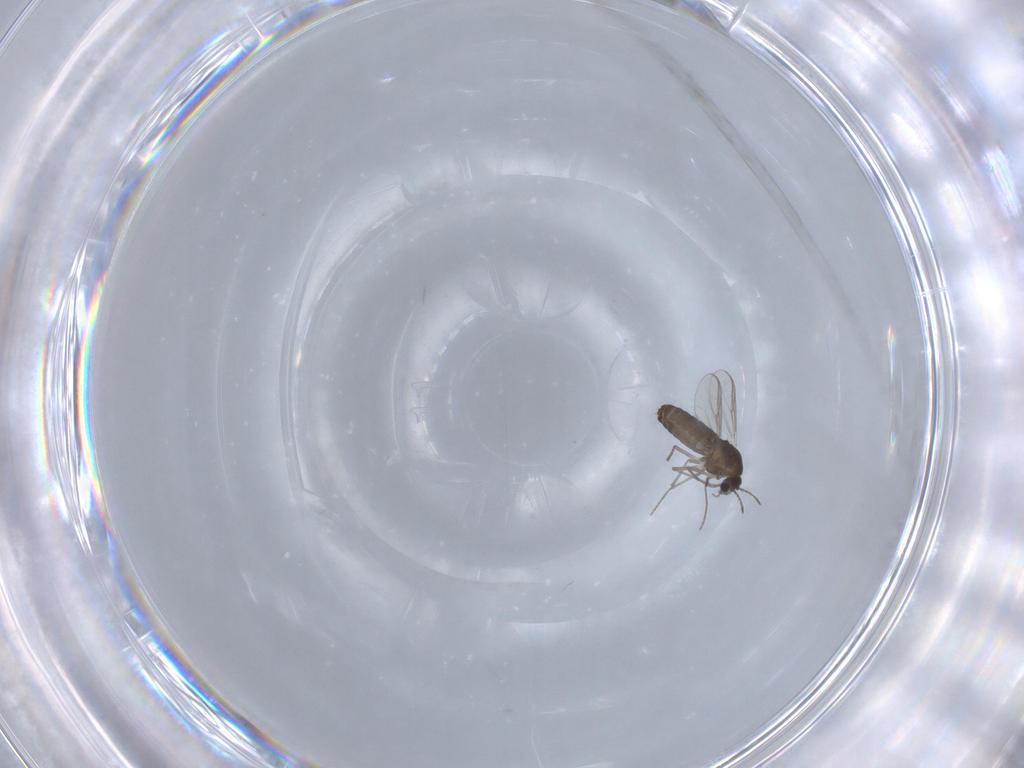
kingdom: Animalia
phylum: Arthropoda
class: Insecta
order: Diptera
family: Chironomidae
